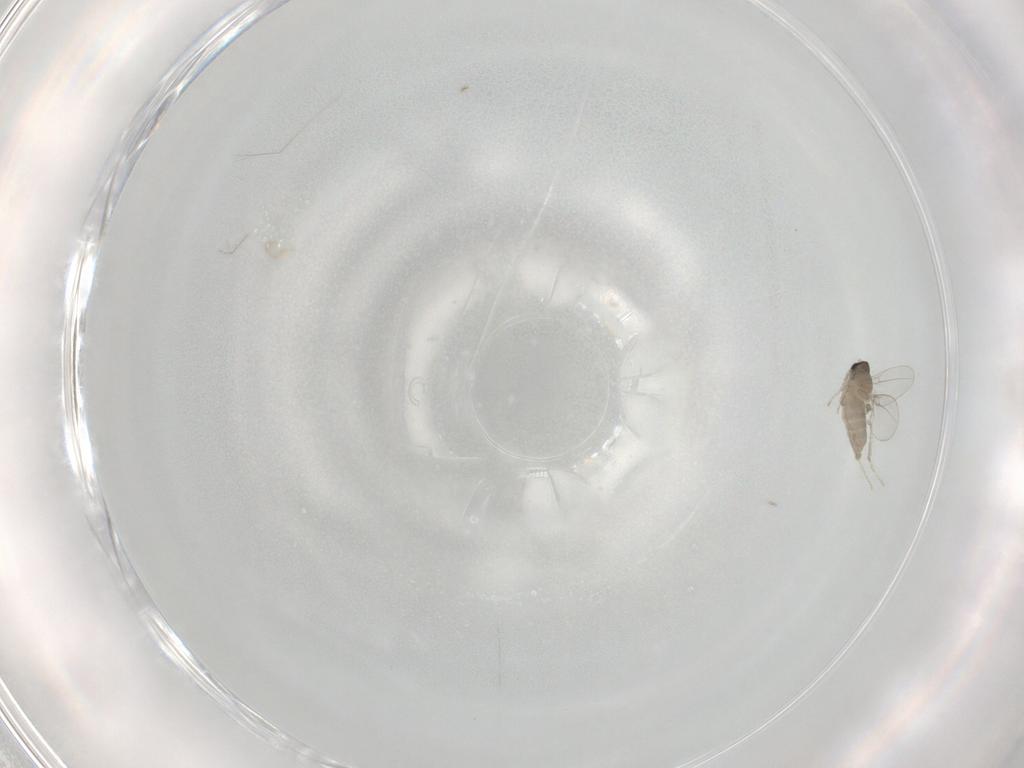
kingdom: Animalia
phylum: Arthropoda
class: Insecta
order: Diptera
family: Cecidomyiidae
